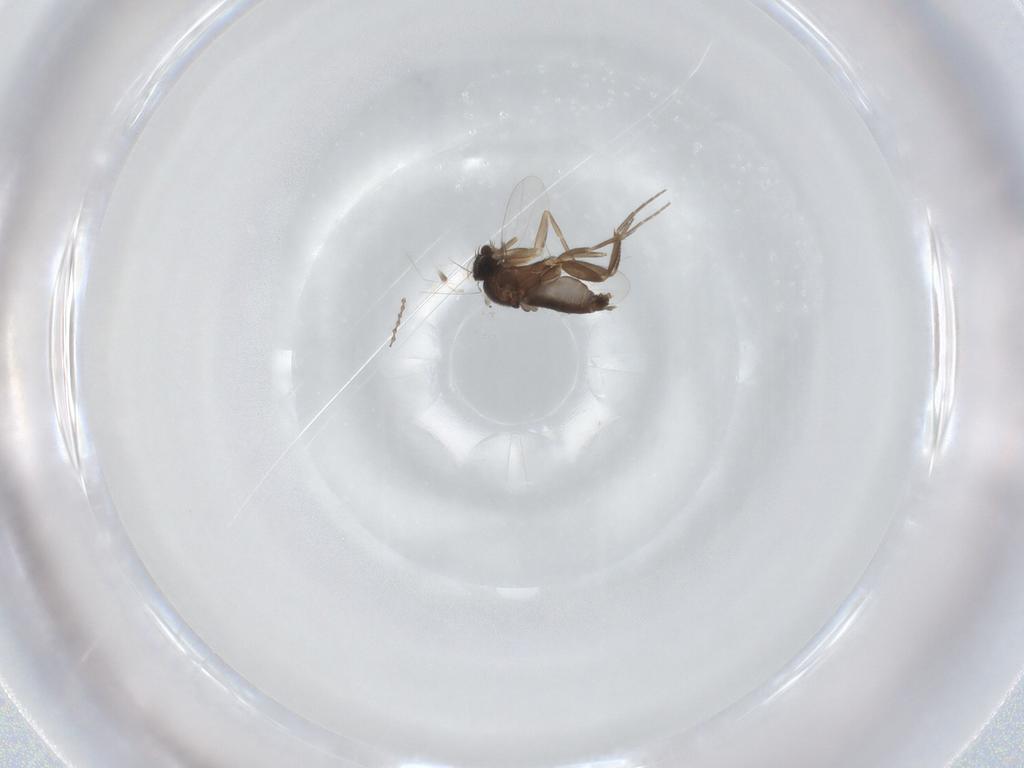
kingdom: Animalia
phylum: Arthropoda
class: Insecta
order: Diptera
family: Phoridae
